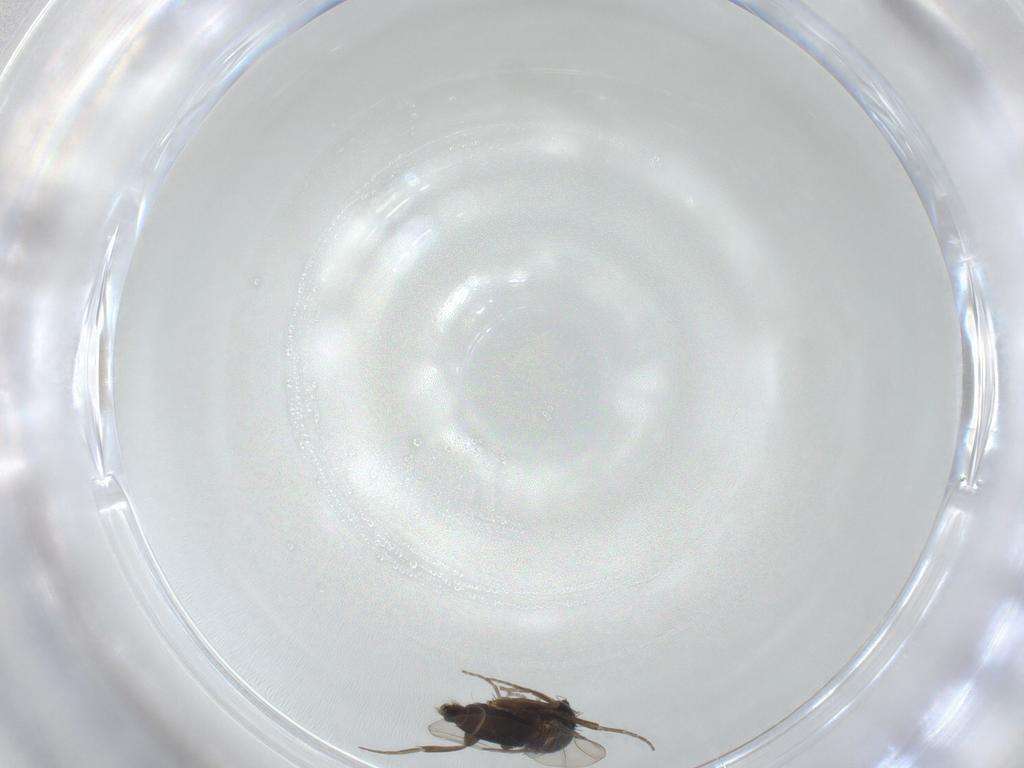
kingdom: Animalia
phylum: Arthropoda
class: Insecta
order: Diptera
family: Phoridae
